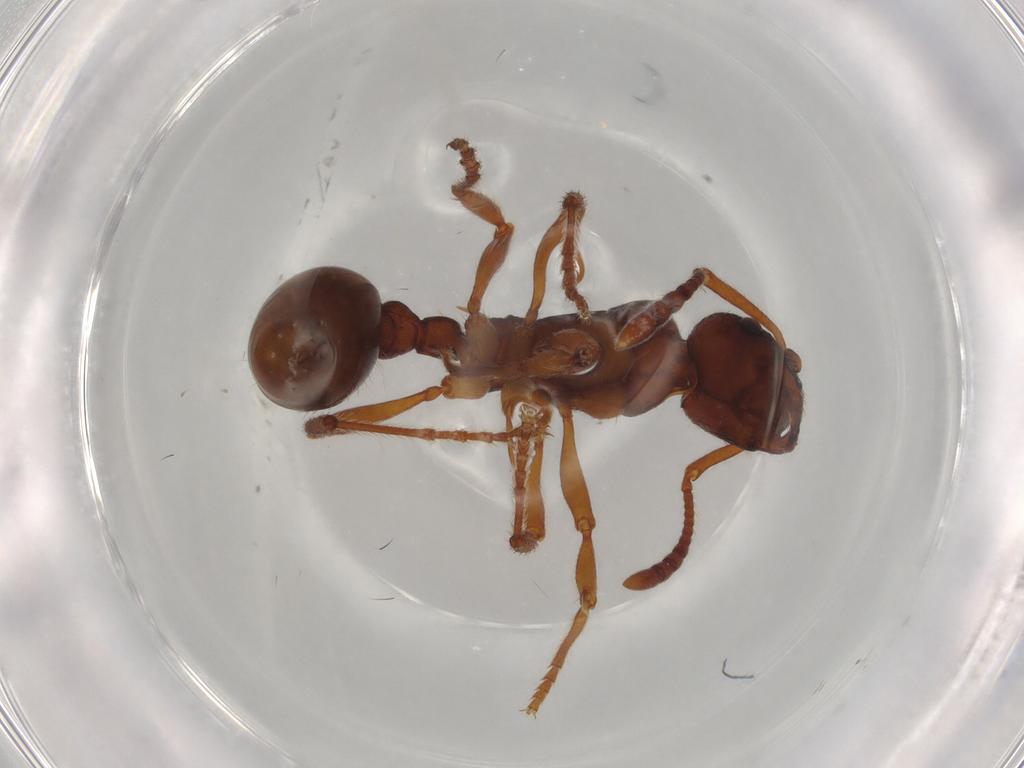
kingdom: Animalia
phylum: Arthropoda
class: Insecta
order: Hymenoptera
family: Formicidae
